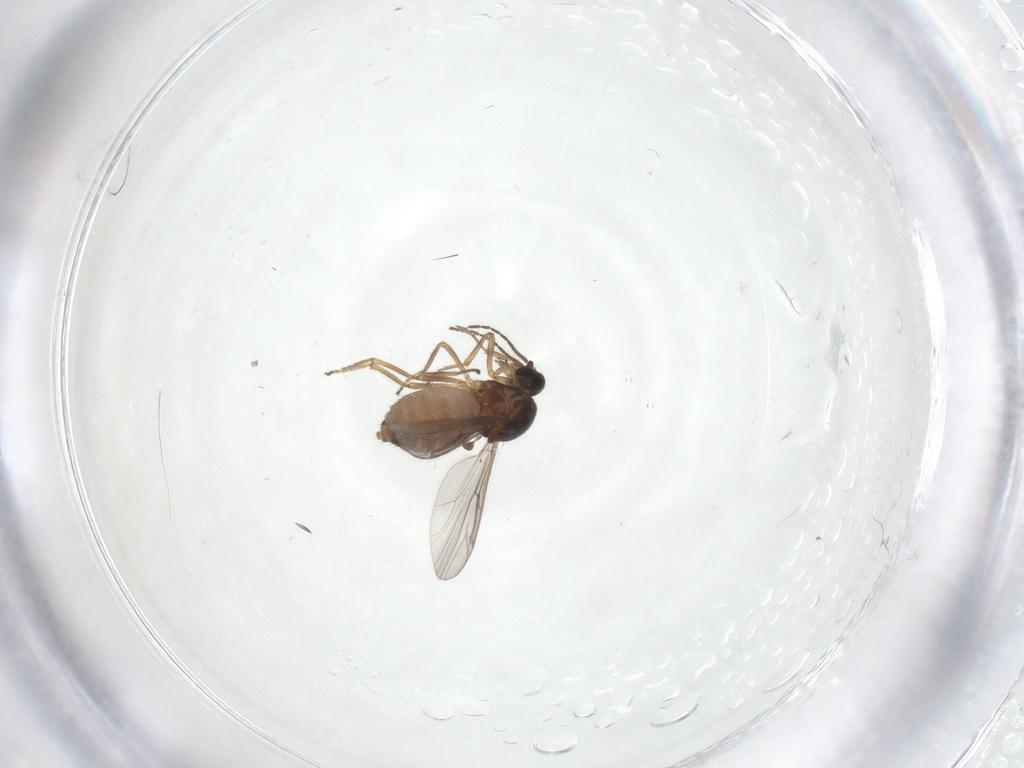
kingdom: Animalia
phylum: Arthropoda
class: Insecta
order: Diptera
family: Ceratopogonidae
